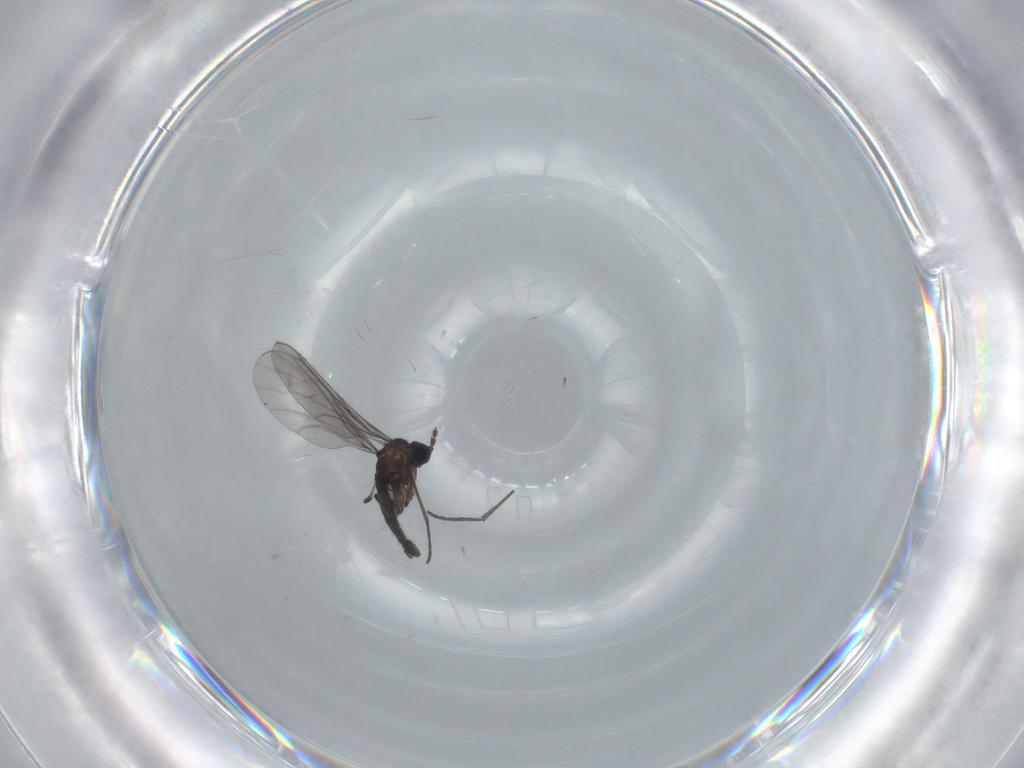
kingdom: Animalia
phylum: Arthropoda
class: Insecta
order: Diptera
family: Sciaridae
